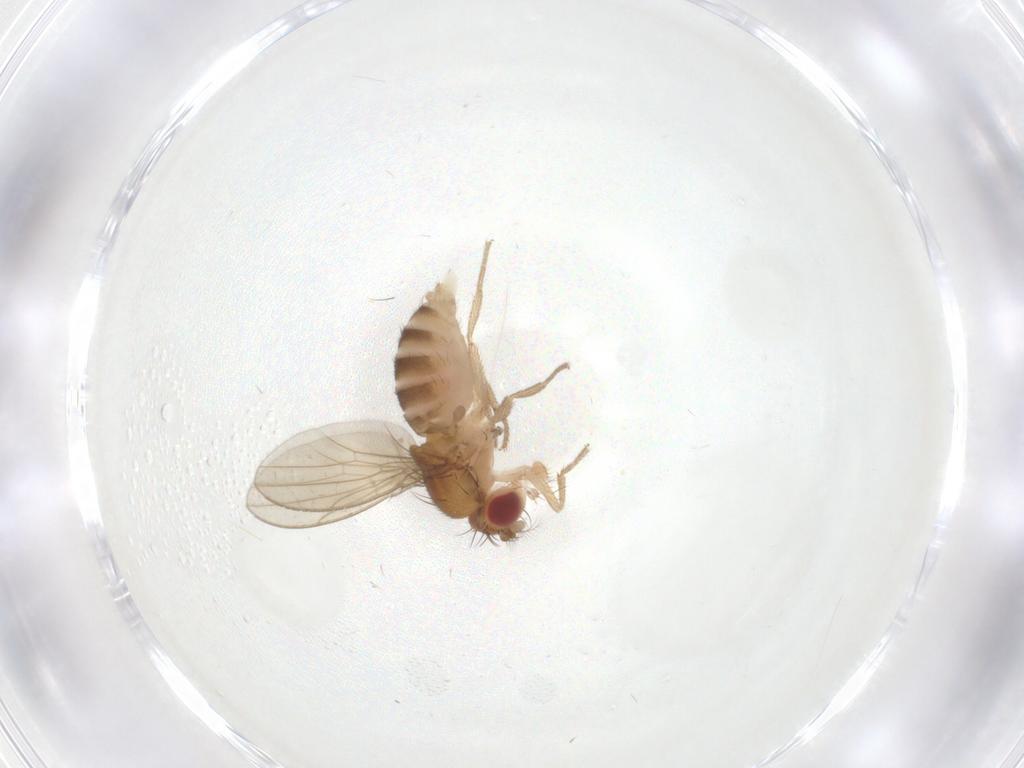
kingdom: Animalia
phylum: Arthropoda
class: Insecta
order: Diptera
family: Drosophilidae
